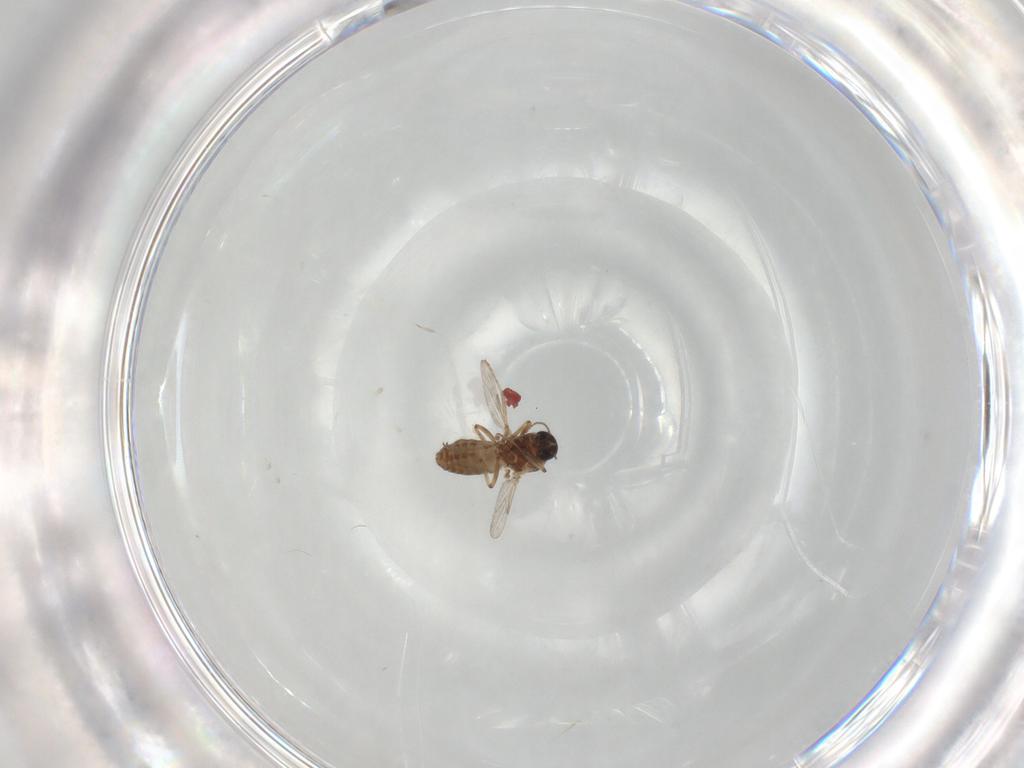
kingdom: Animalia
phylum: Arthropoda
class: Insecta
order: Diptera
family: Ceratopogonidae
